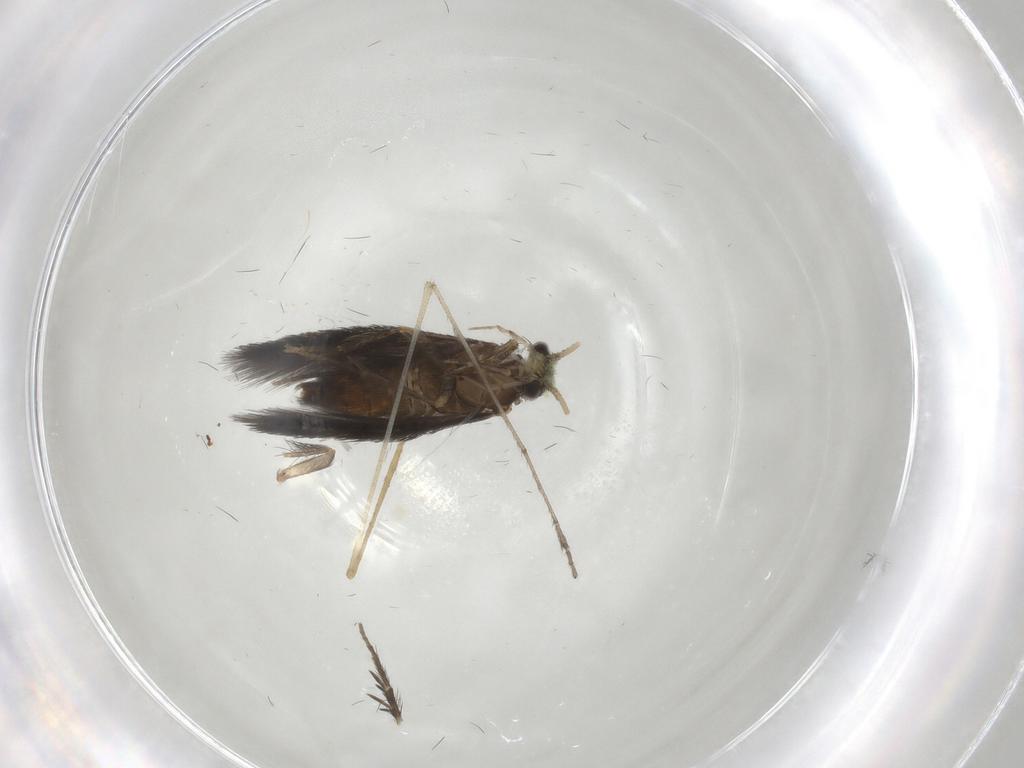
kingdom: Animalia
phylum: Arthropoda
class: Insecta
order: Trichoptera
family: Hydroptilidae
